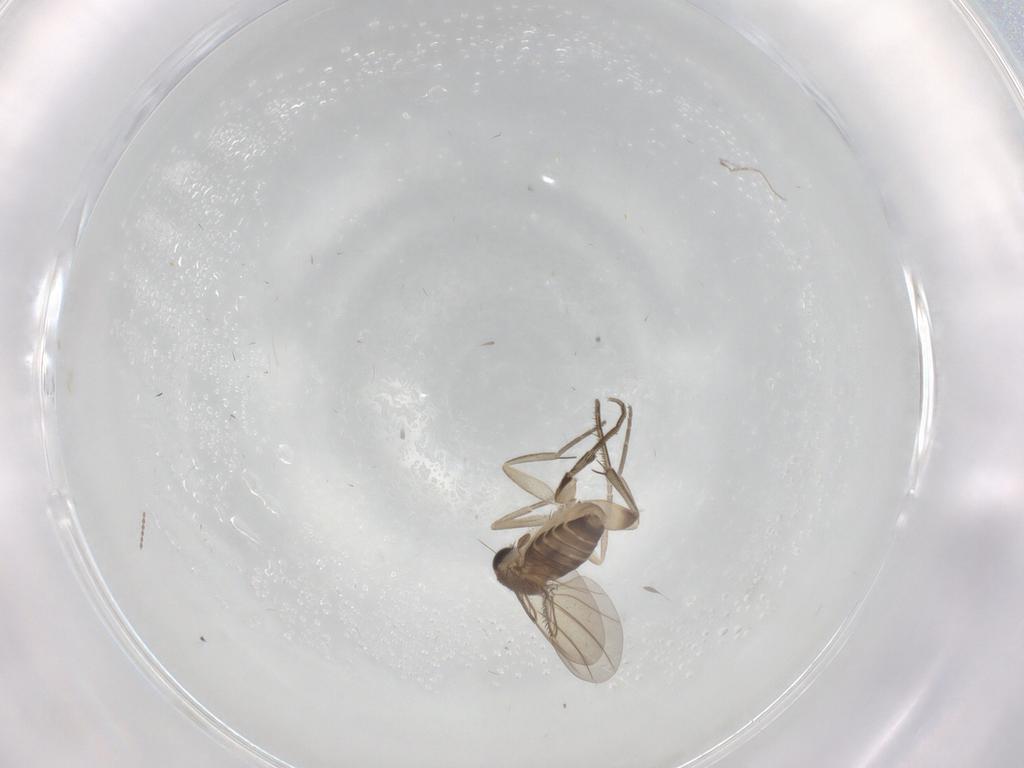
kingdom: Animalia
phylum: Arthropoda
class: Insecta
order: Diptera
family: Phoridae
